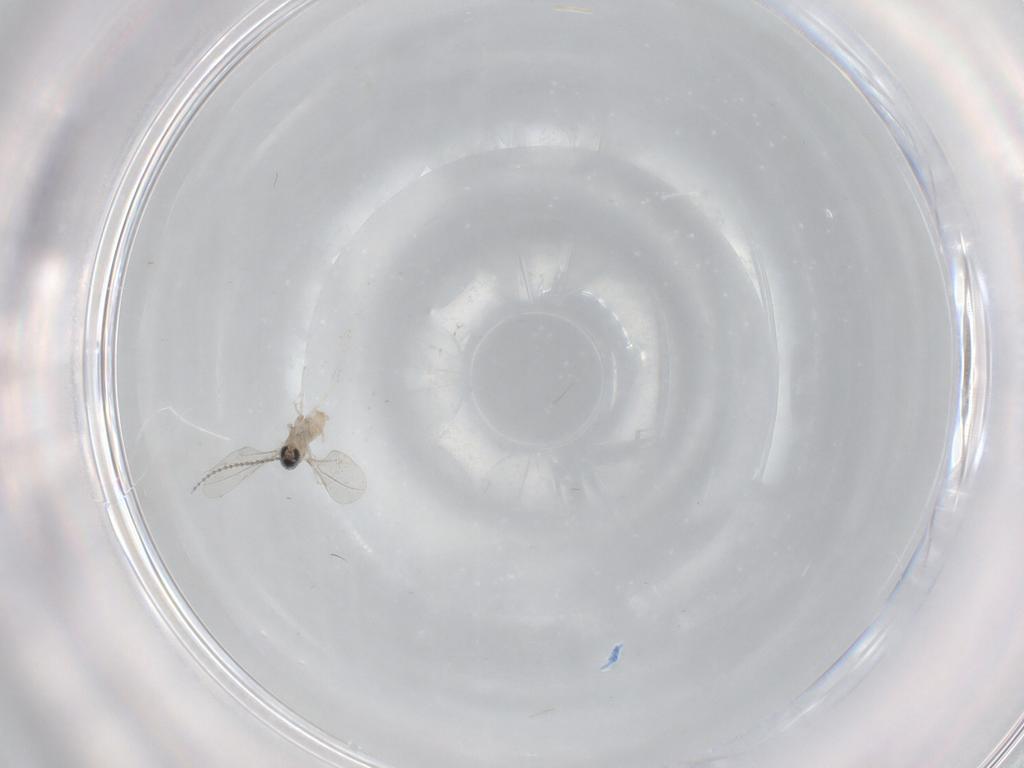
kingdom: Animalia
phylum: Arthropoda
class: Insecta
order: Diptera
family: Cecidomyiidae
